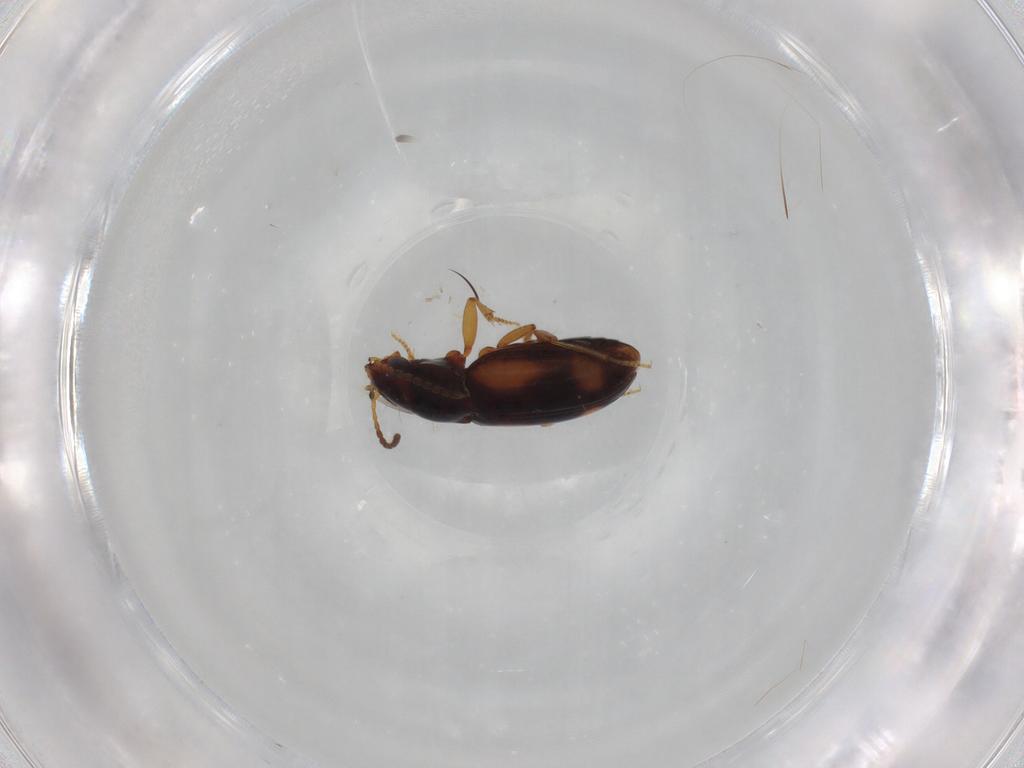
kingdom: Animalia
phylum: Arthropoda
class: Insecta
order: Coleoptera
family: Carabidae
